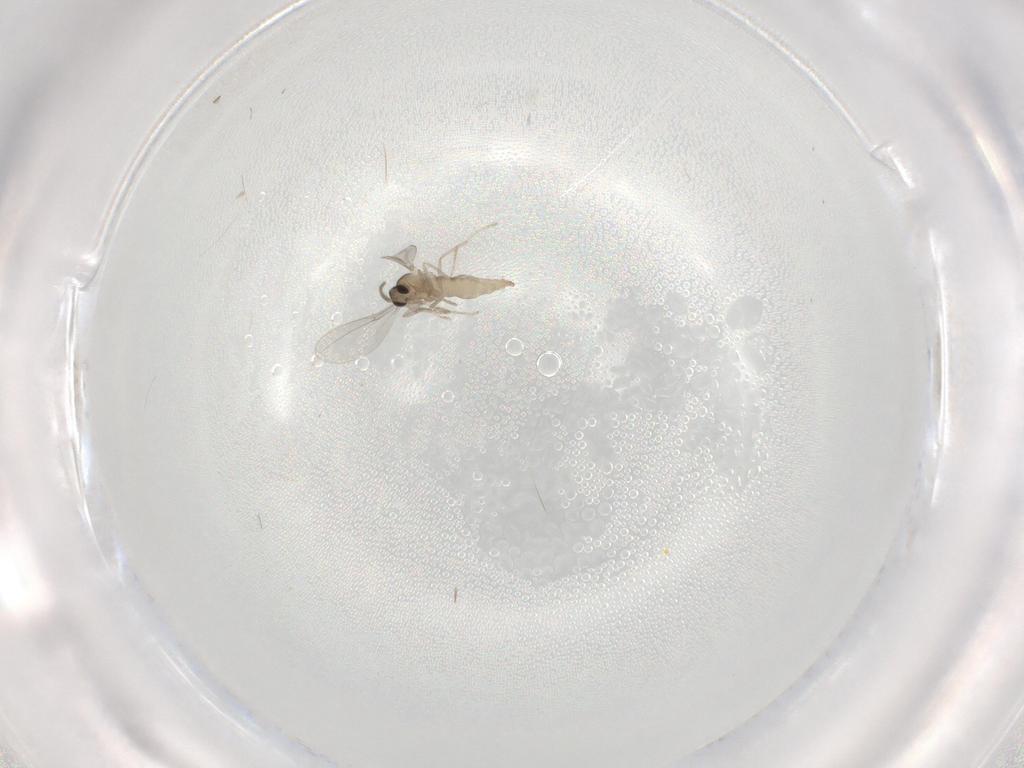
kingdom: Animalia
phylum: Arthropoda
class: Insecta
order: Diptera
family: Cecidomyiidae
